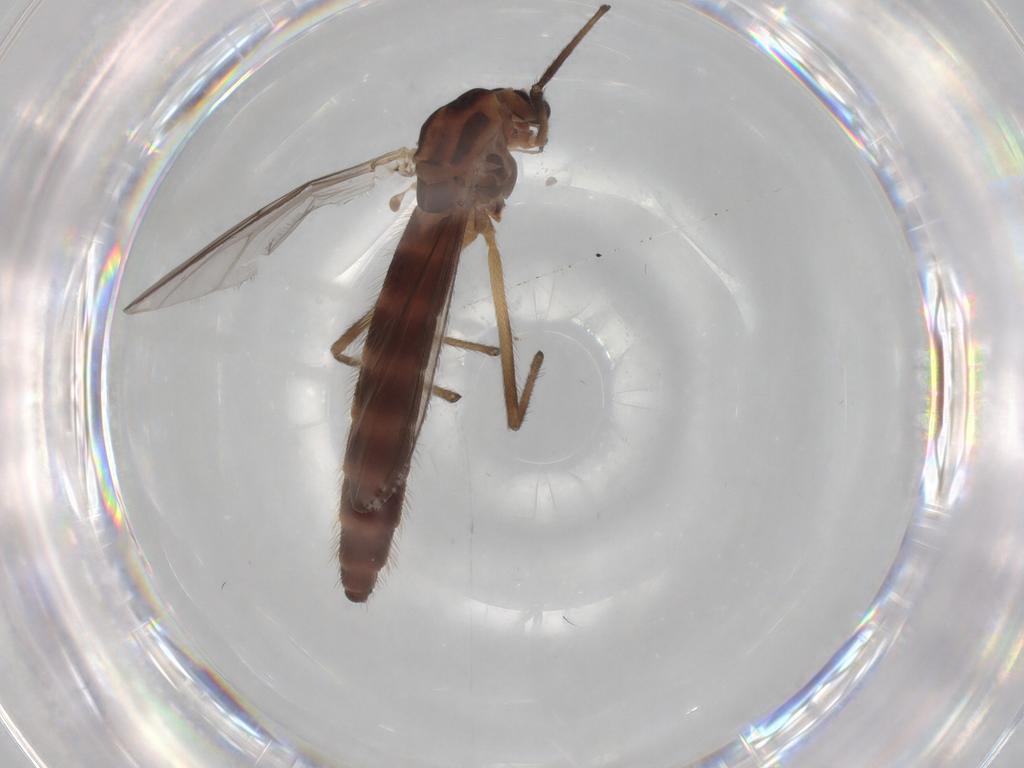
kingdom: Animalia
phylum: Arthropoda
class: Insecta
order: Diptera
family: Chironomidae
